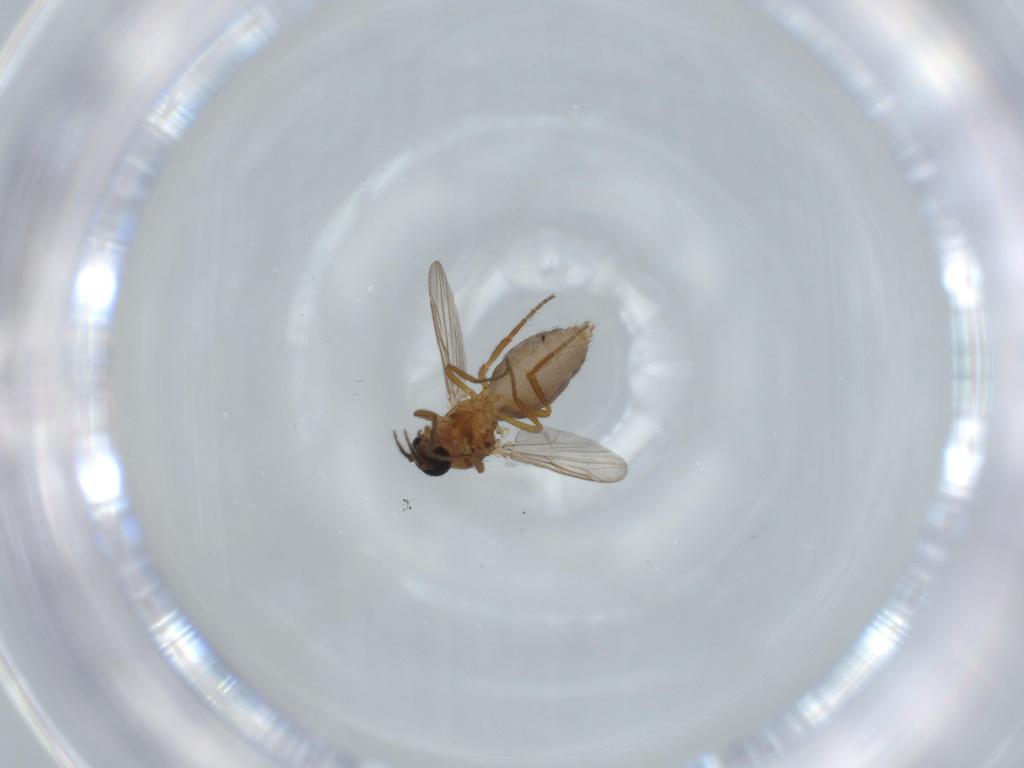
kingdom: Animalia
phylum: Arthropoda
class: Insecta
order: Diptera
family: Ceratopogonidae
